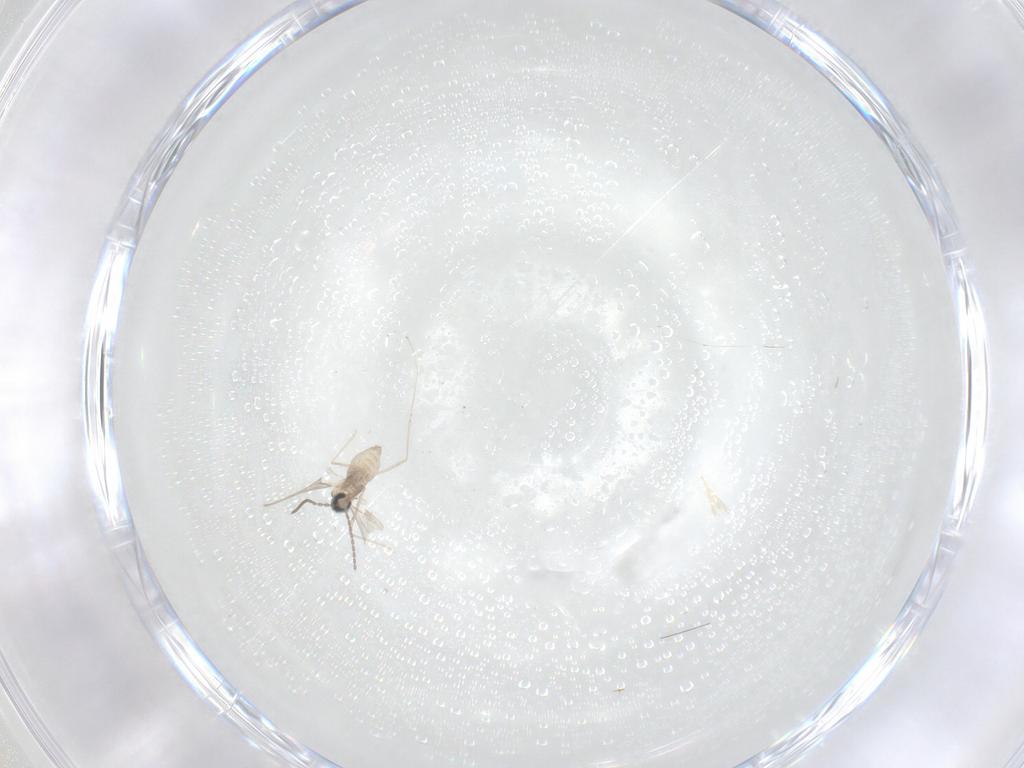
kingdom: Animalia
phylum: Arthropoda
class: Insecta
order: Diptera
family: Cecidomyiidae
